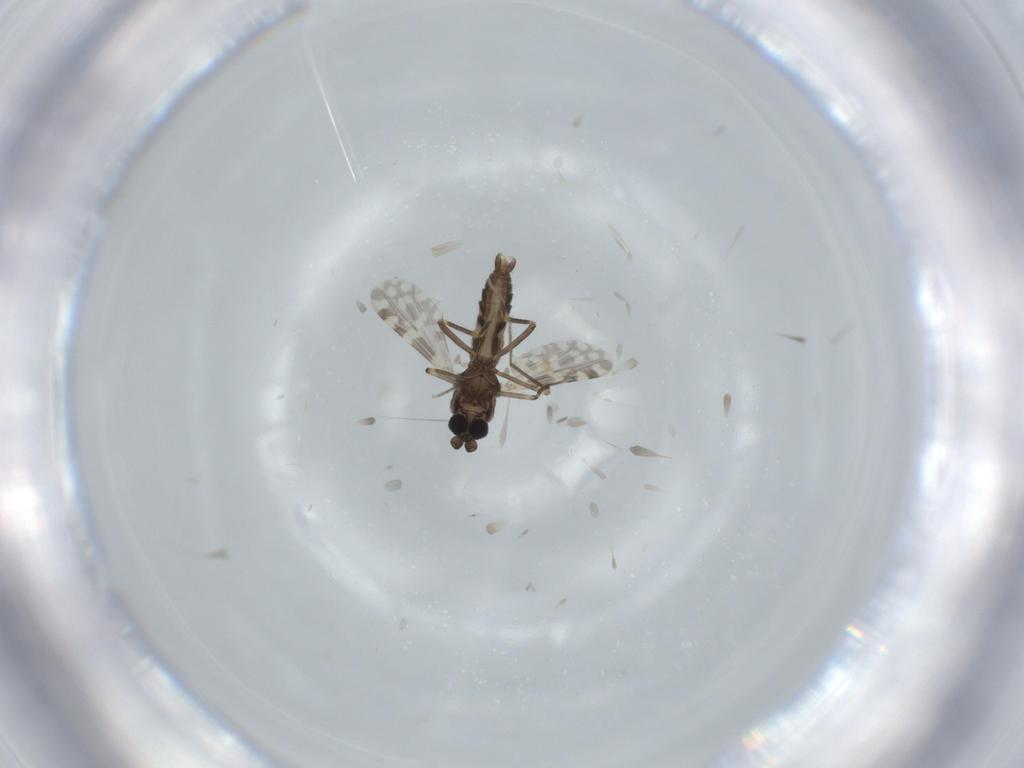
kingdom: Animalia
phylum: Arthropoda
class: Insecta
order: Diptera
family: Ceratopogonidae
